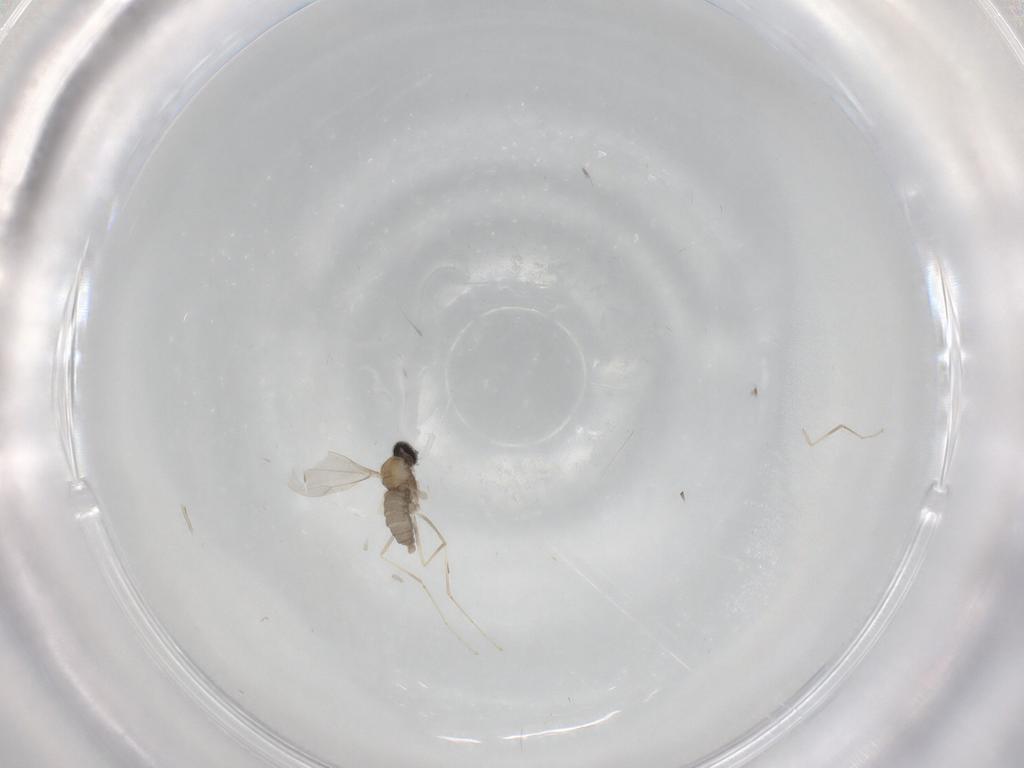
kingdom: Animalia
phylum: Arthropoda
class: Insecta
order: Diptera
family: Cecidomyiidae
